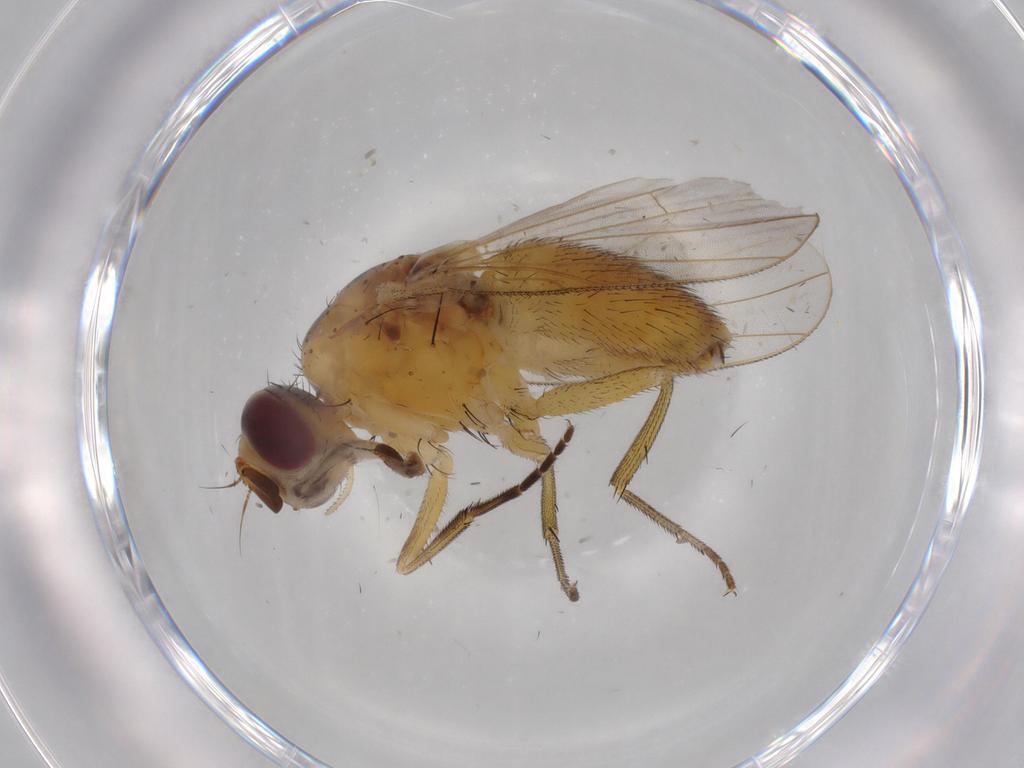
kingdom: Animalia
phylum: Arthropoda
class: Insecta
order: Diptera
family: Muscidae
